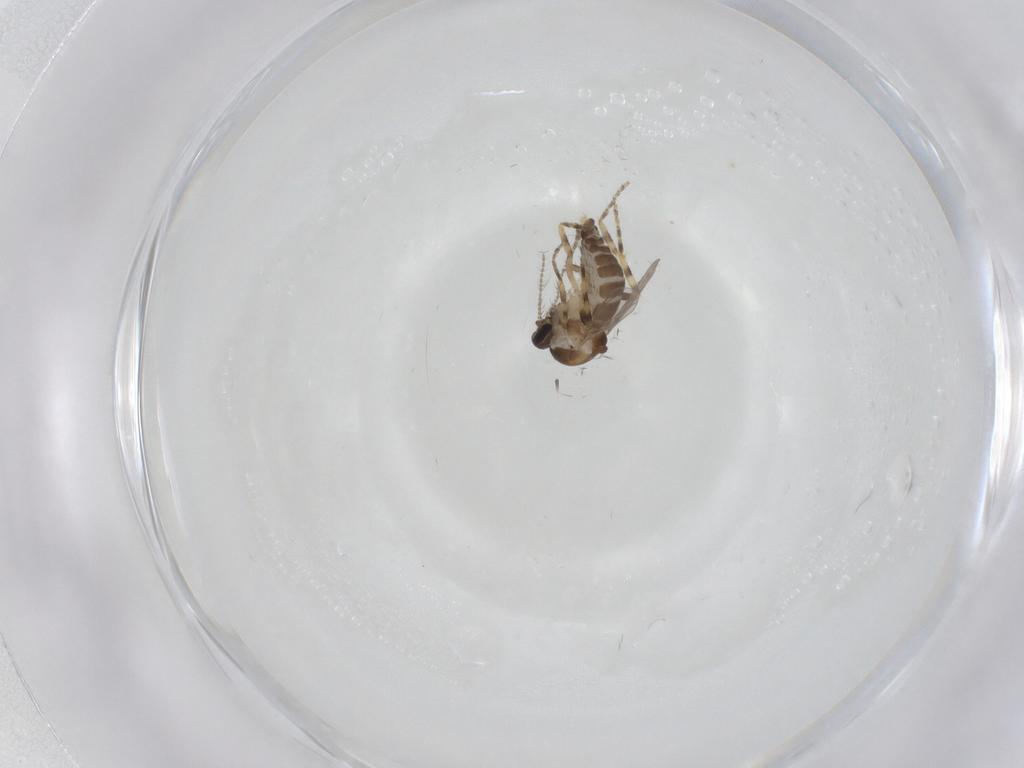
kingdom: Animalia
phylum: Arthropoda
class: Insecta
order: Diptera
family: Ceratopogonidae
